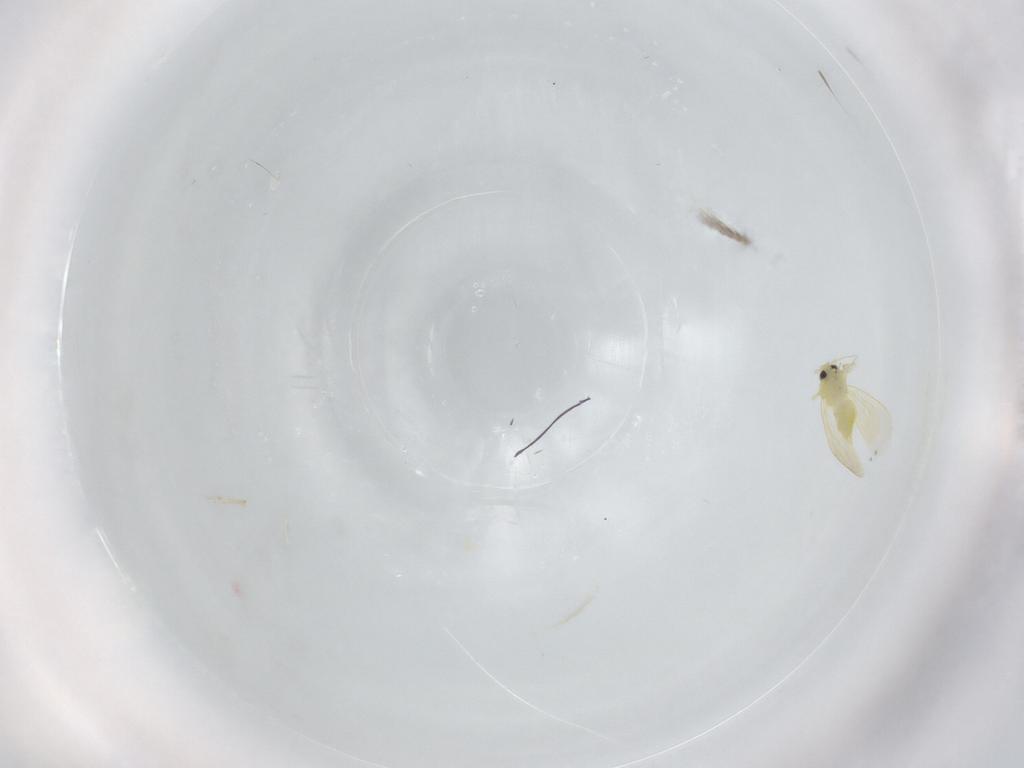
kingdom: Animalia
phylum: Arthropoda
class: Insecta
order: Hemiptera
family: Aleyrodidae
